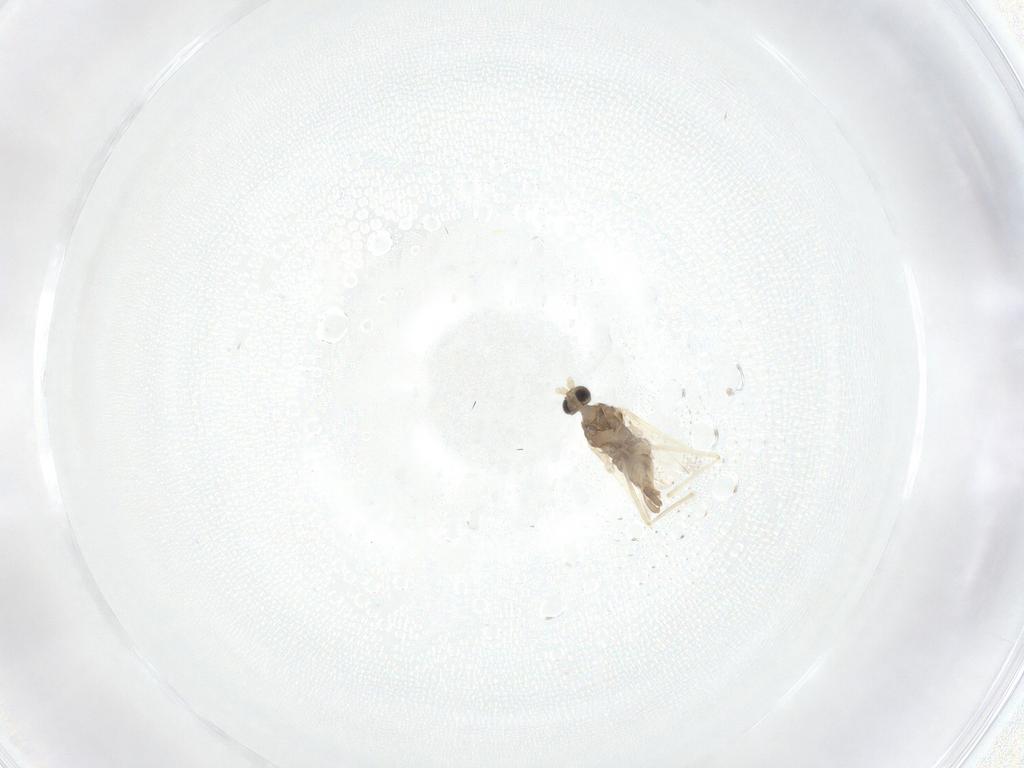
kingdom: Animalia
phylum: Arthropoda
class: Insecta
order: Diptera
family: Cecidomyiidae
